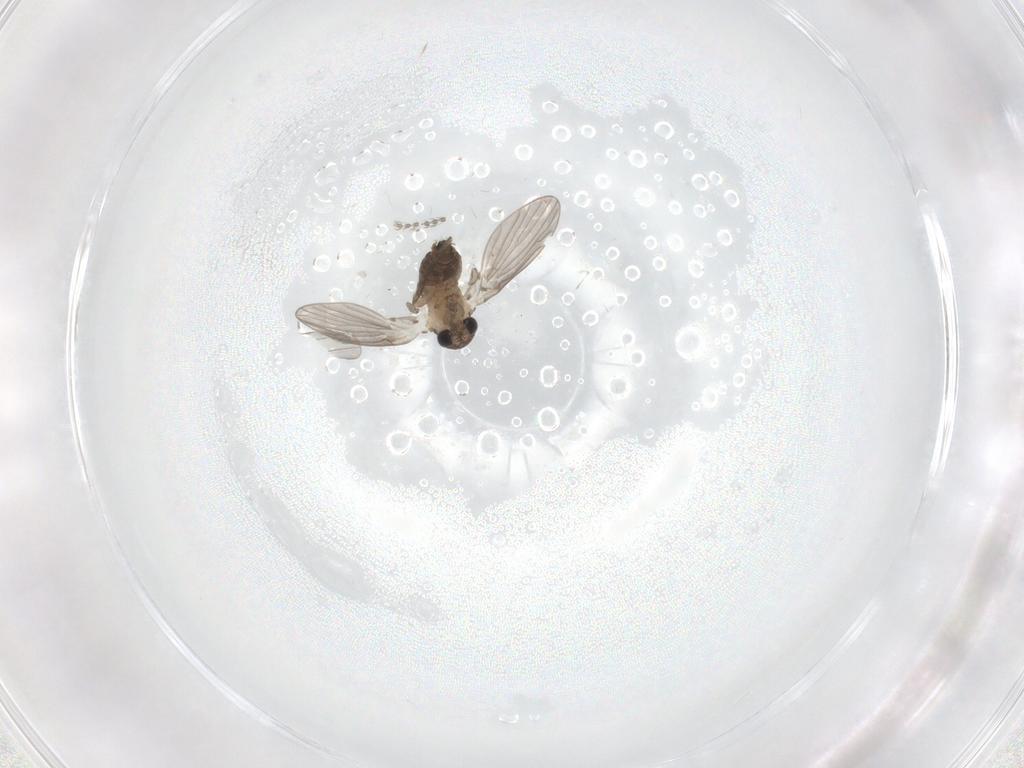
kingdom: Animalia
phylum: Arthropoda
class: Insecta
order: Diptera
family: Psychodidae
